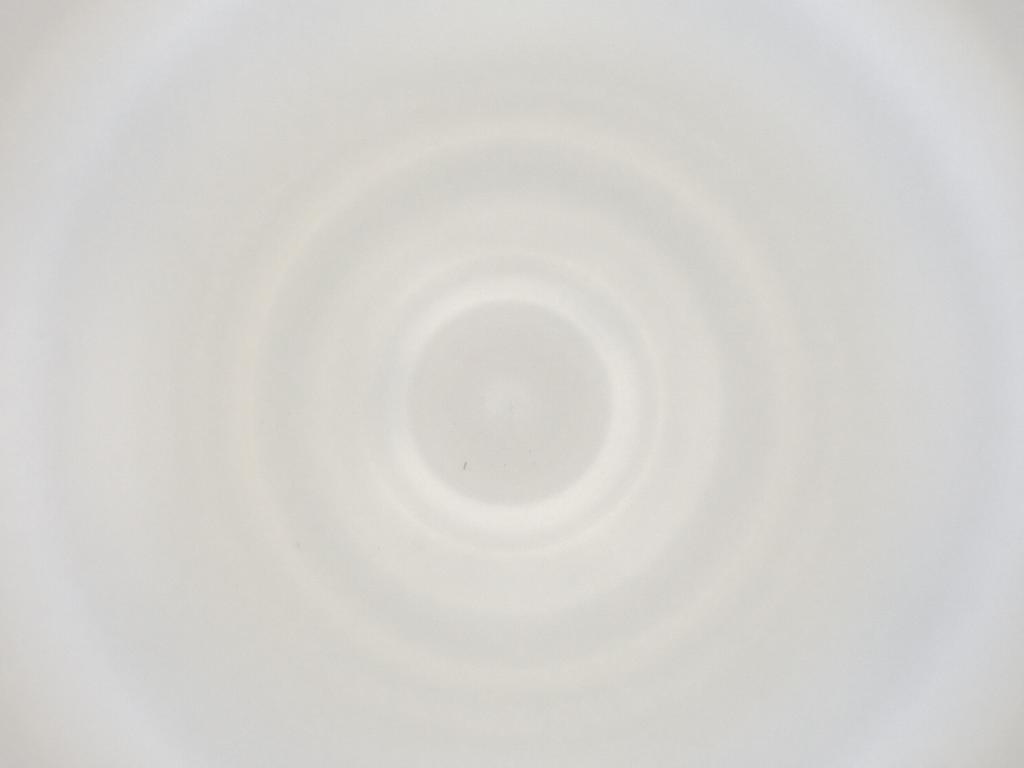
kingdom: Animalia
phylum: Arthropoda
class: Insecta
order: Diptera
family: Cecidomyiidae
